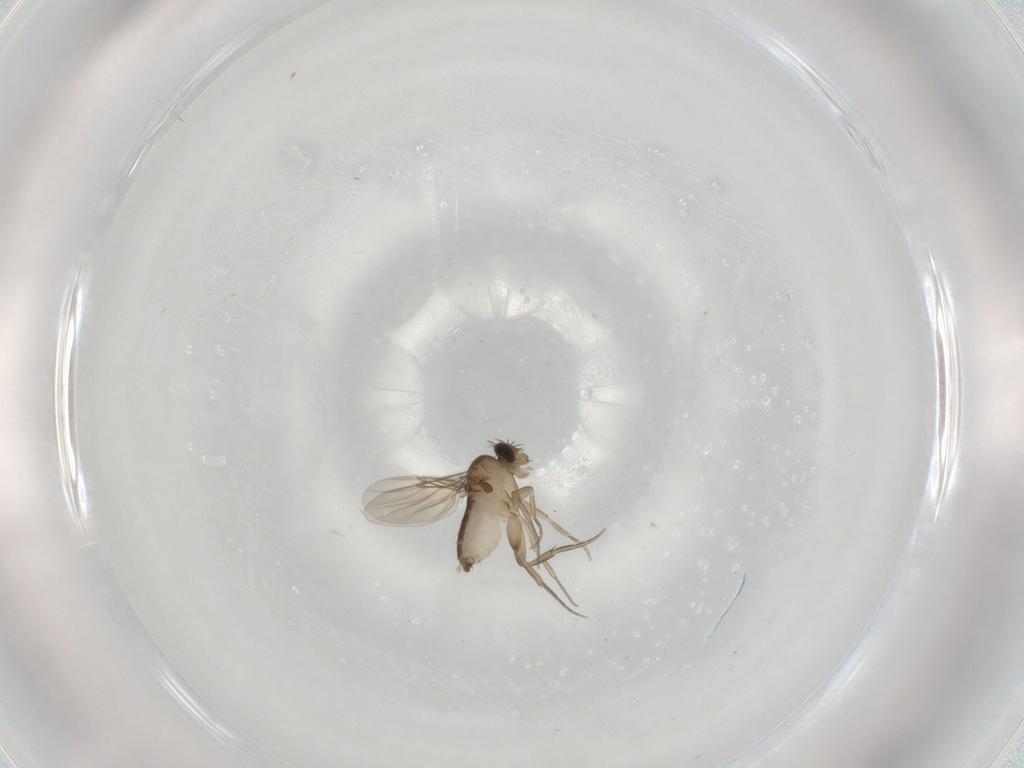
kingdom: Animalia
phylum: Arthropoda
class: Insecta
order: Diptera
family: Phoridae
